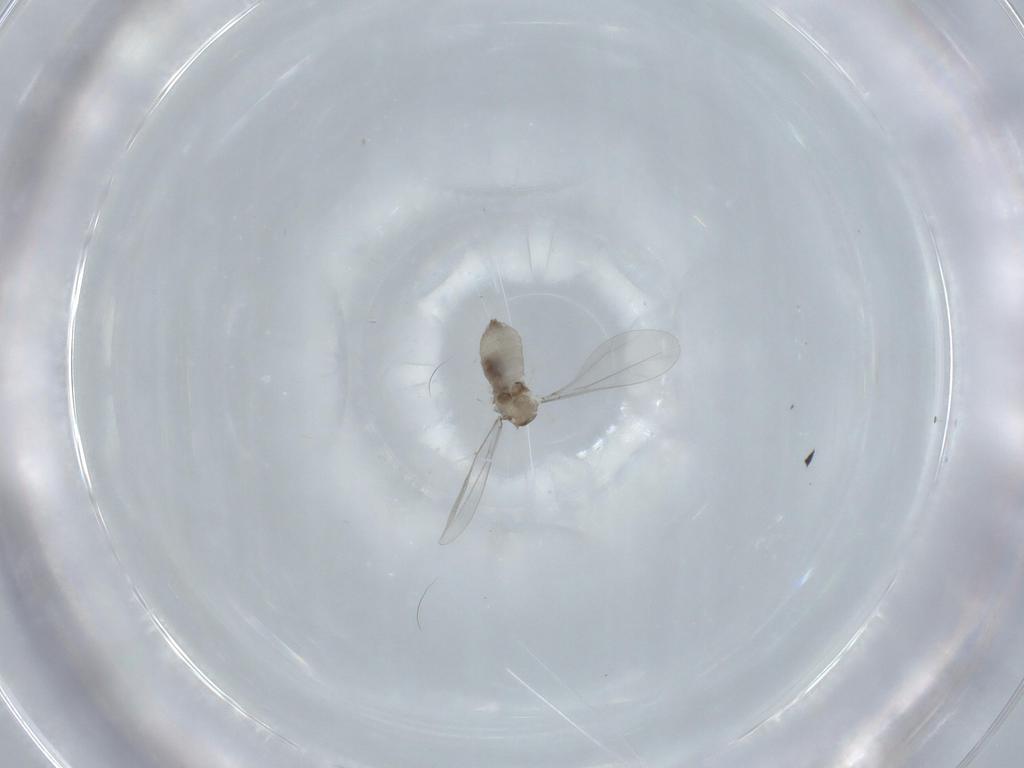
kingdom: Animalia
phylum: Arthropoda
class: Insecta
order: Diptera
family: Cecidomyiidae
